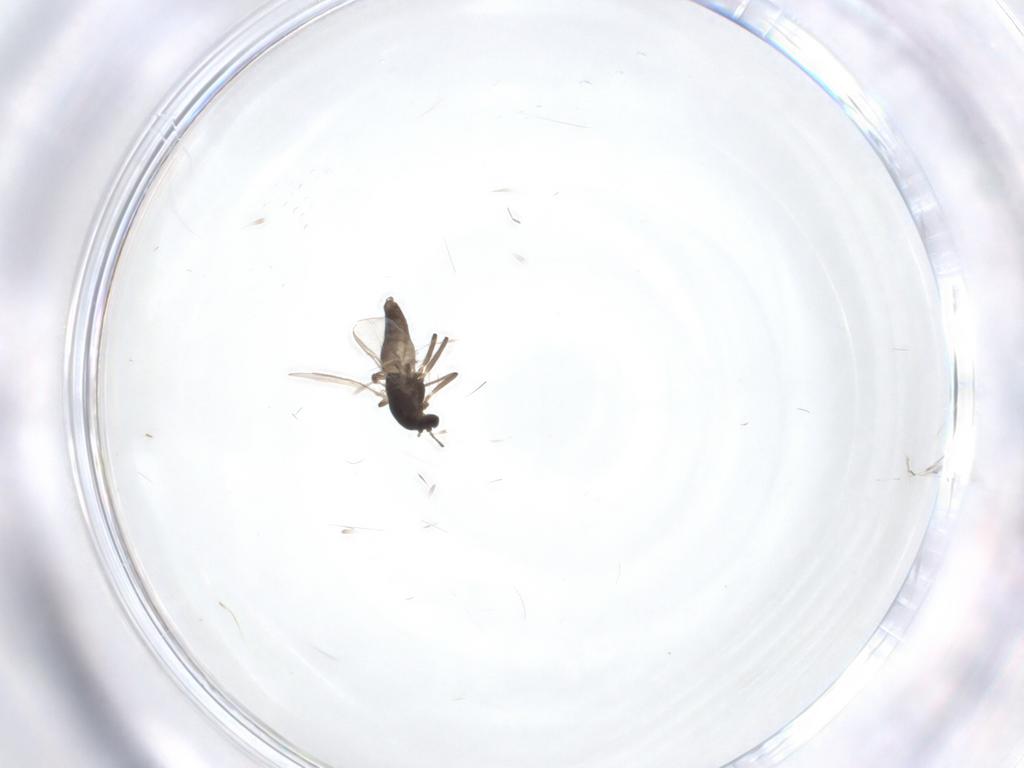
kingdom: Animalia
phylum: Arthropoda
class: Insecta
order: Diptera
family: Chironomidae
